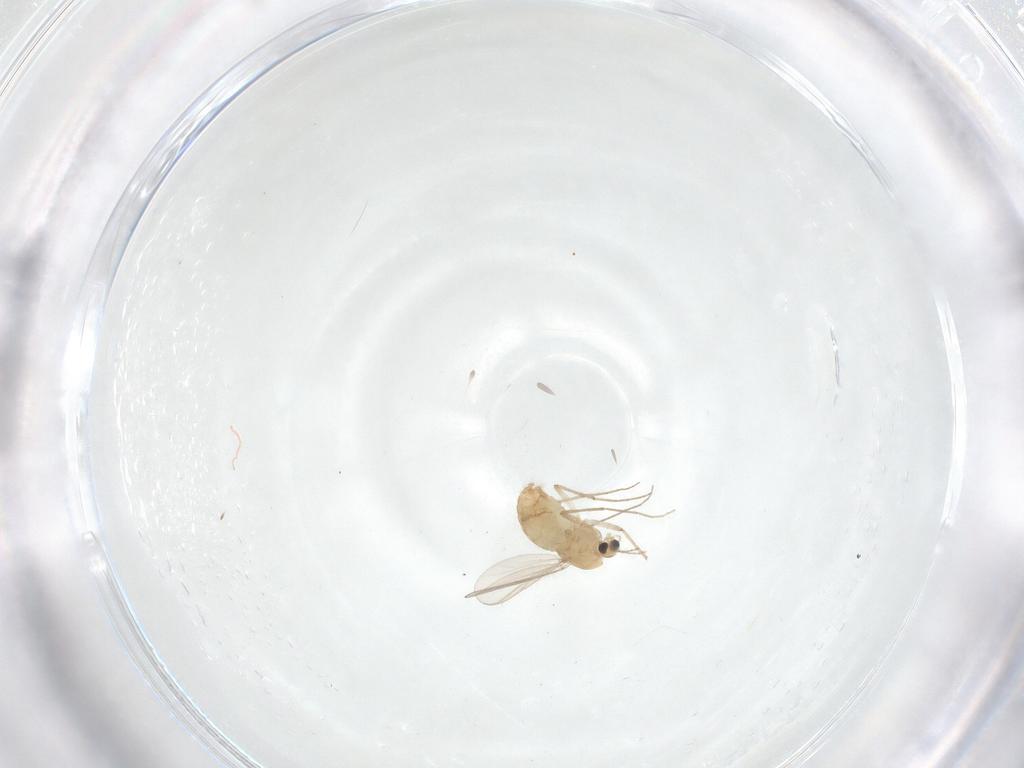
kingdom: Animalia
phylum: Arthropoda
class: Insecta
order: Diptera
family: Chironomidae
